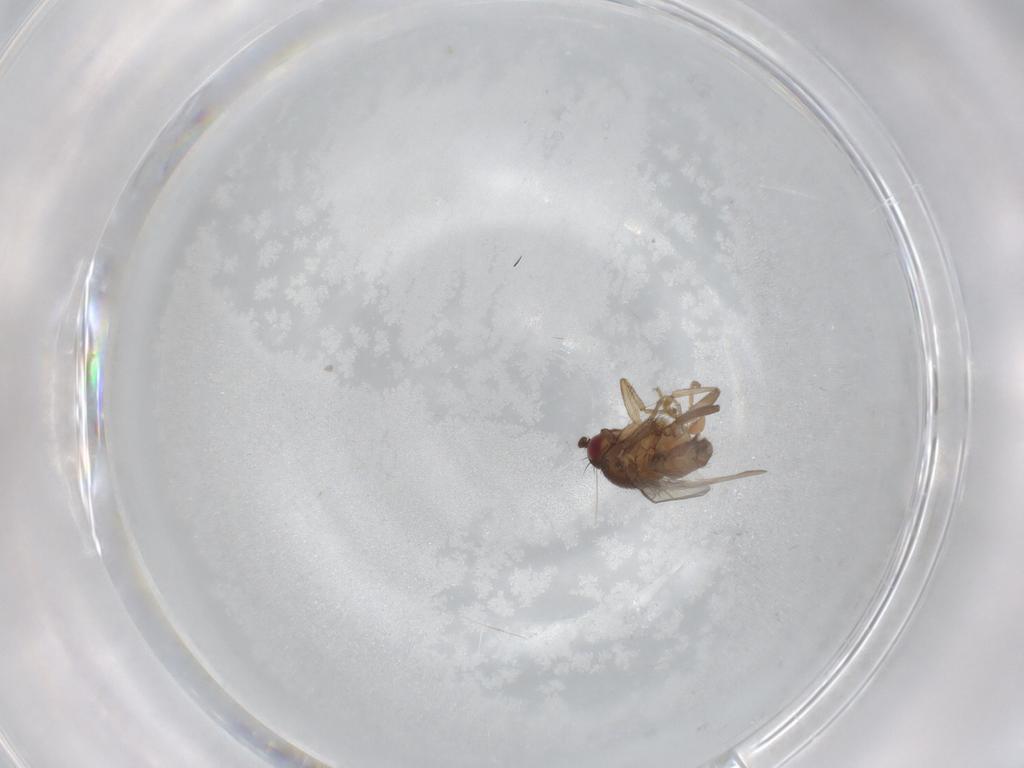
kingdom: Animalia
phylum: Arthropoda
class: Insecta
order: Diptera
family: Sphaeroceridae
